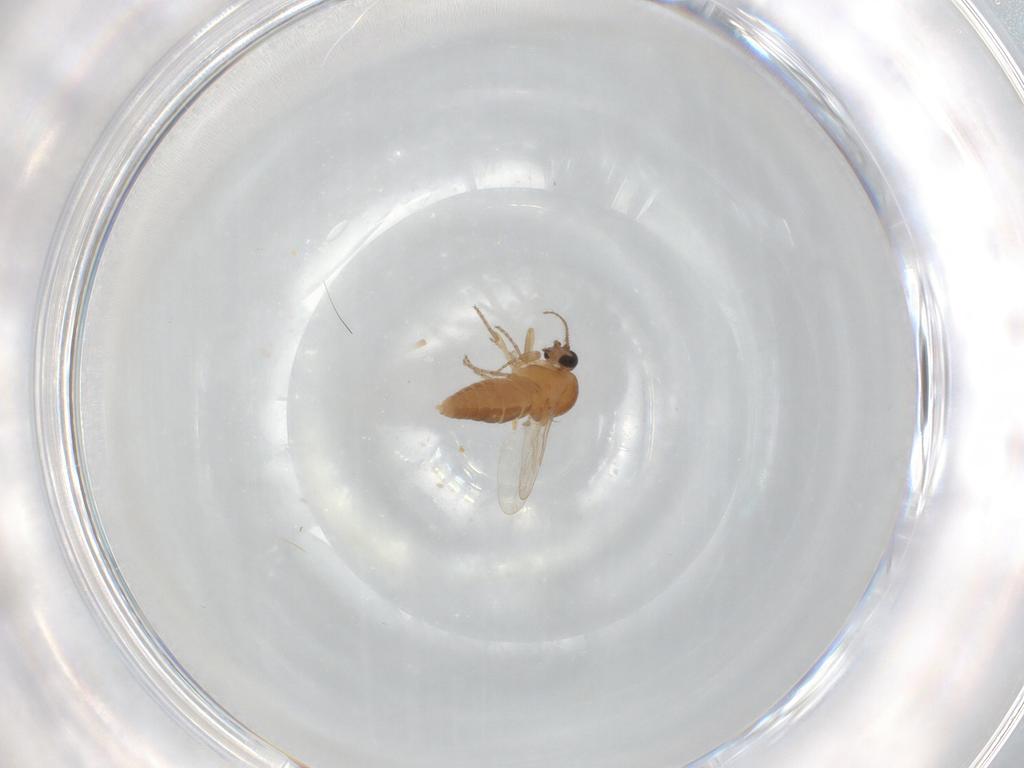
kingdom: Animalia
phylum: Arthropoda
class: Insecta
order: Diptera
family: Ceratopogonidae
